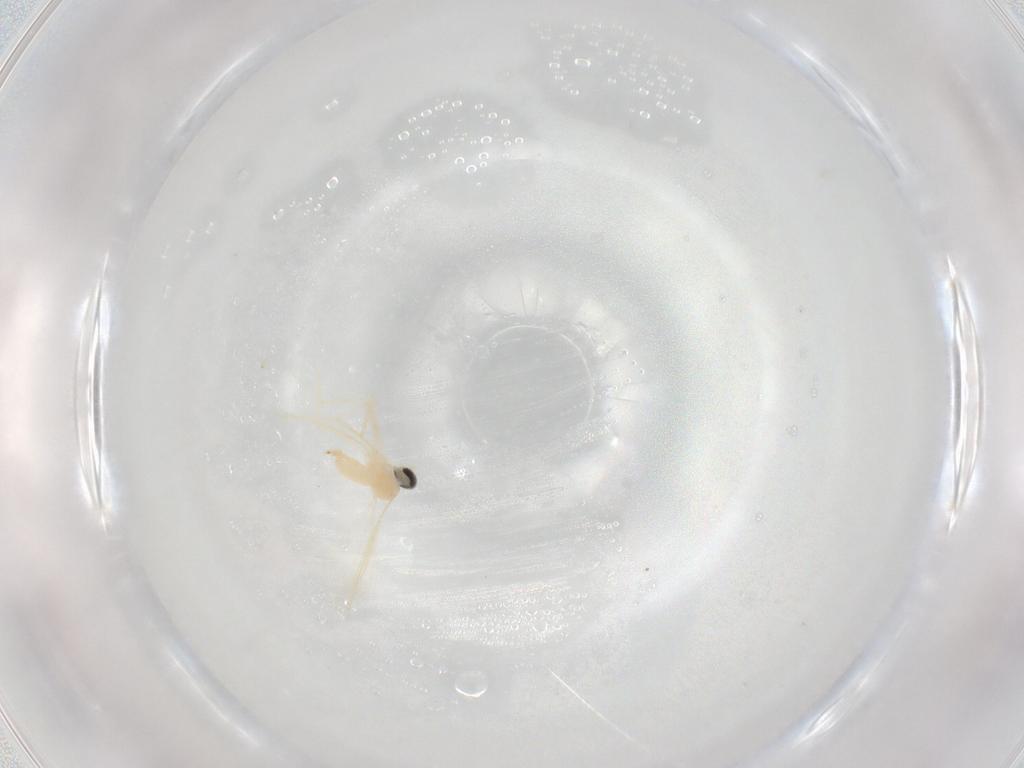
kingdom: Animalia
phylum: Arthropoda
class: Insecta
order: Diptera
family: Cecidomyiidae
